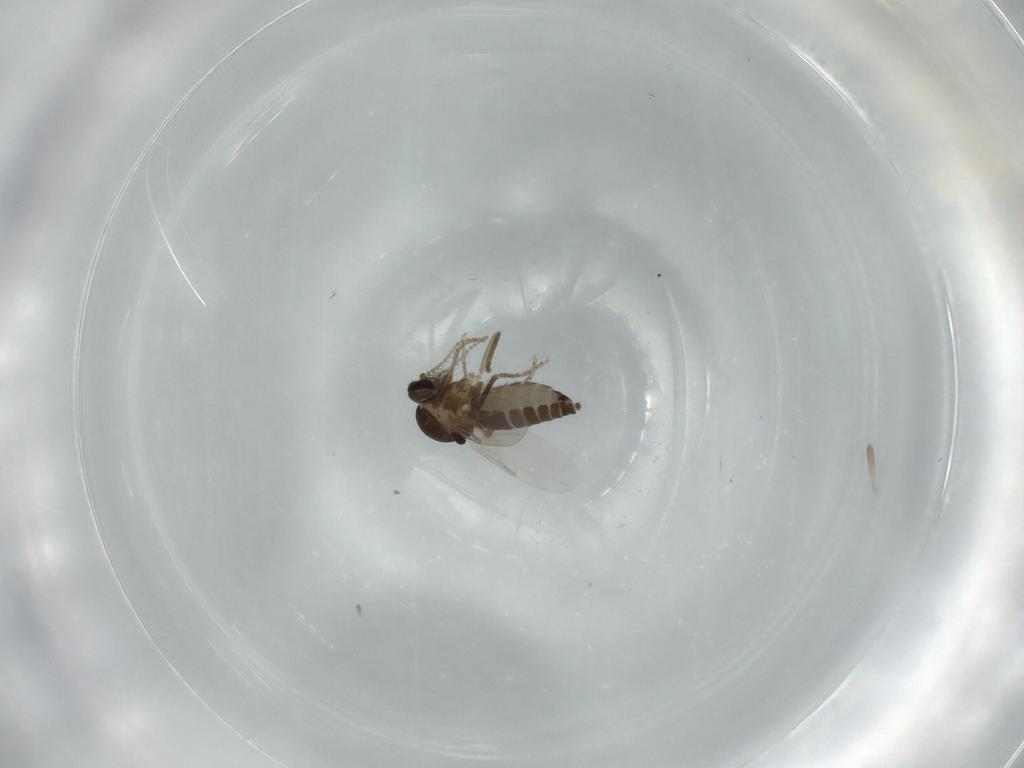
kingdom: Animalia
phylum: Arthropoda
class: Insecta
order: Diptera
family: Ceratopogonidae
